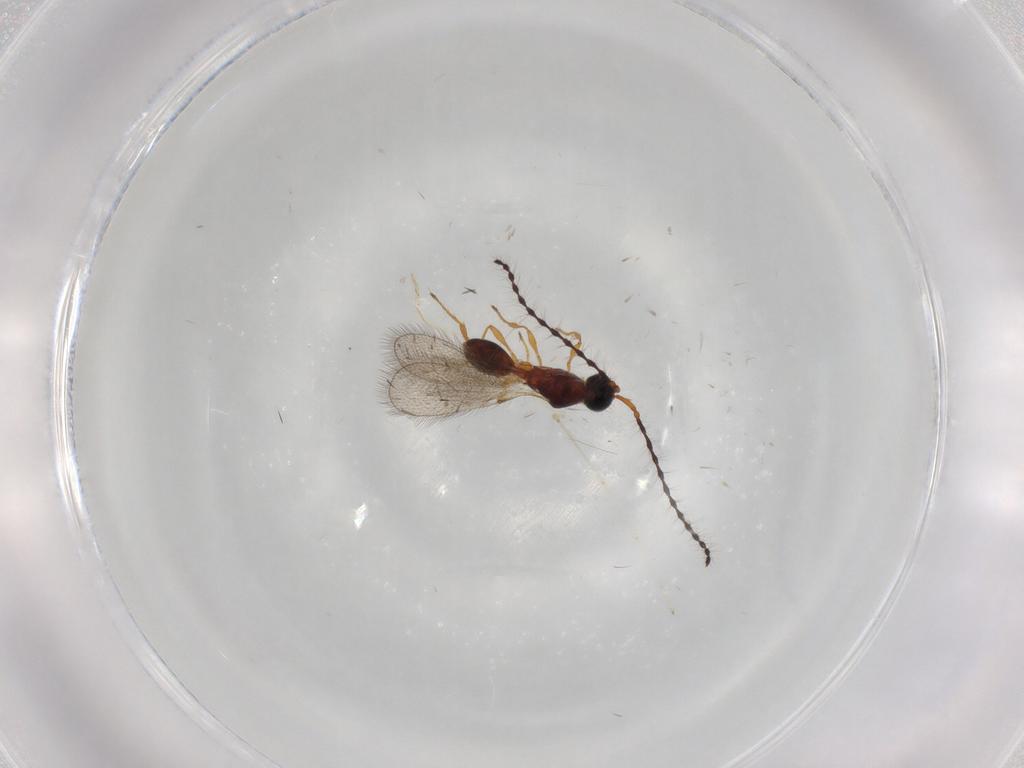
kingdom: Animalia
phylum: Arthropoda
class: Insecta
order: Hymenoptera
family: Diapriidae
